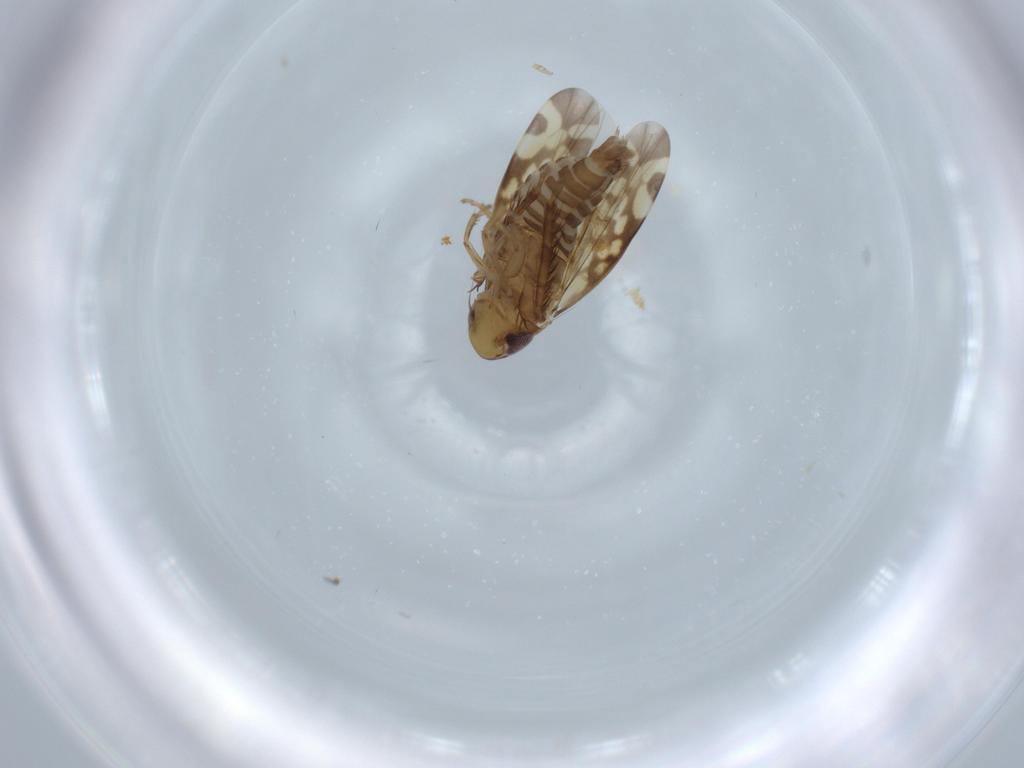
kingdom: Animalia
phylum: Arthropoda
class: Insecta
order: Hemiptera
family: Cicadellidae
